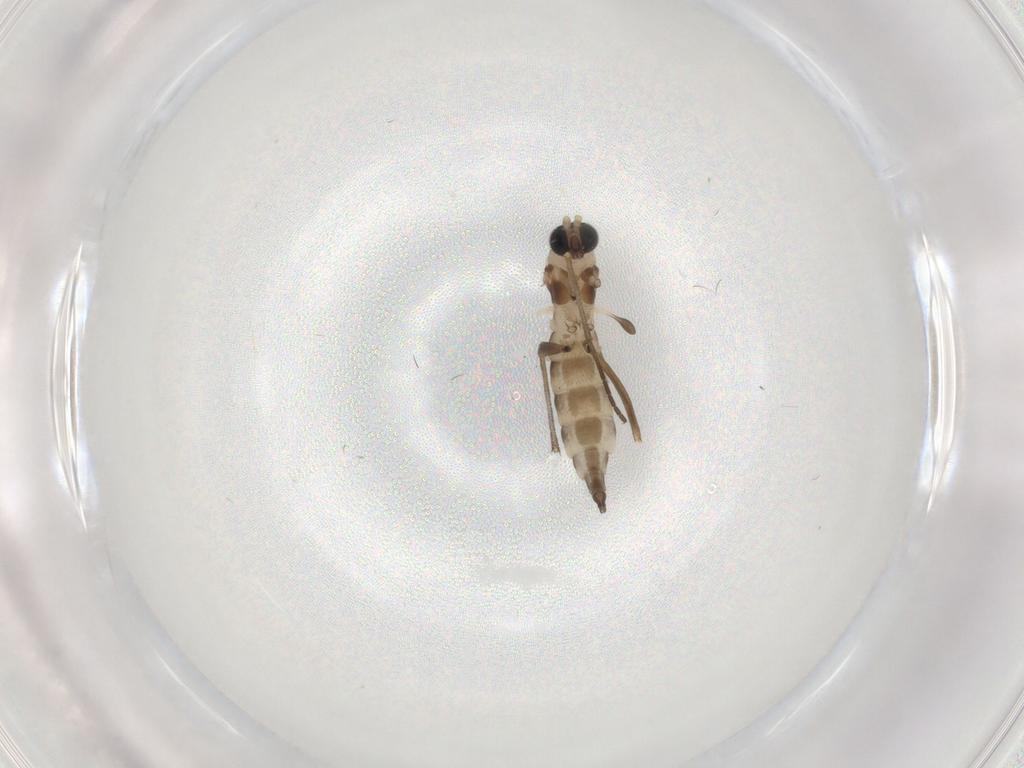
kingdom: Animalia
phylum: Arthropoda
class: Insecta
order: Diptera
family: Sciaridae
